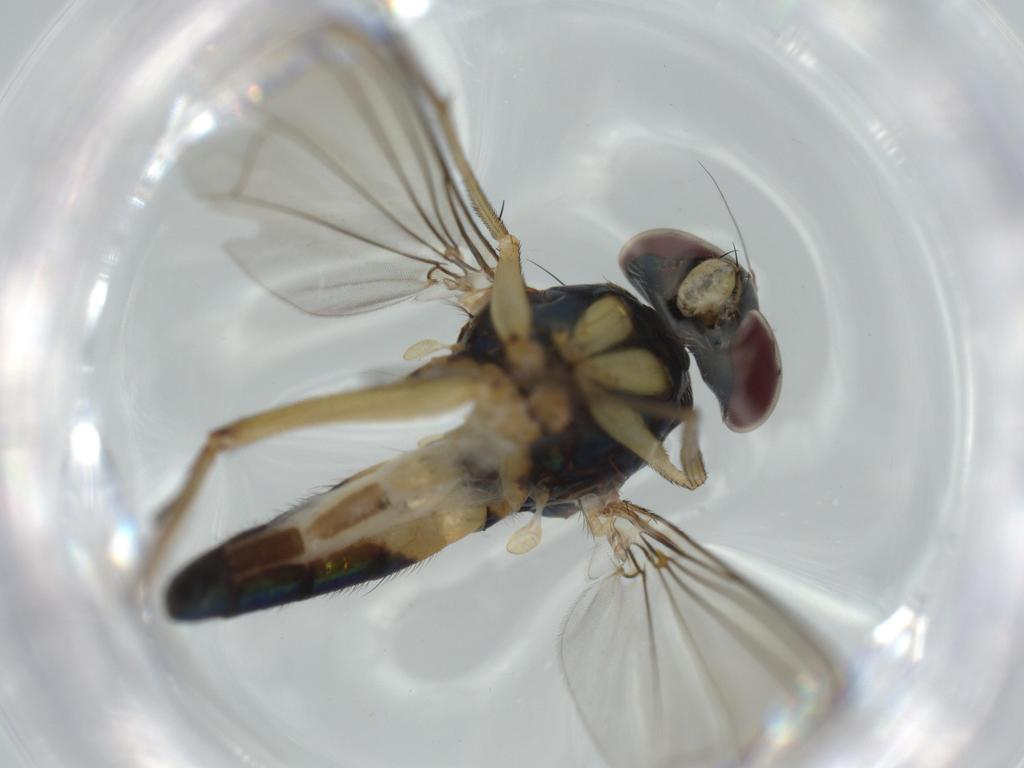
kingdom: Animalia
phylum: Arthropoda
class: Insecta
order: Diptera
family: Dolichopodidae
